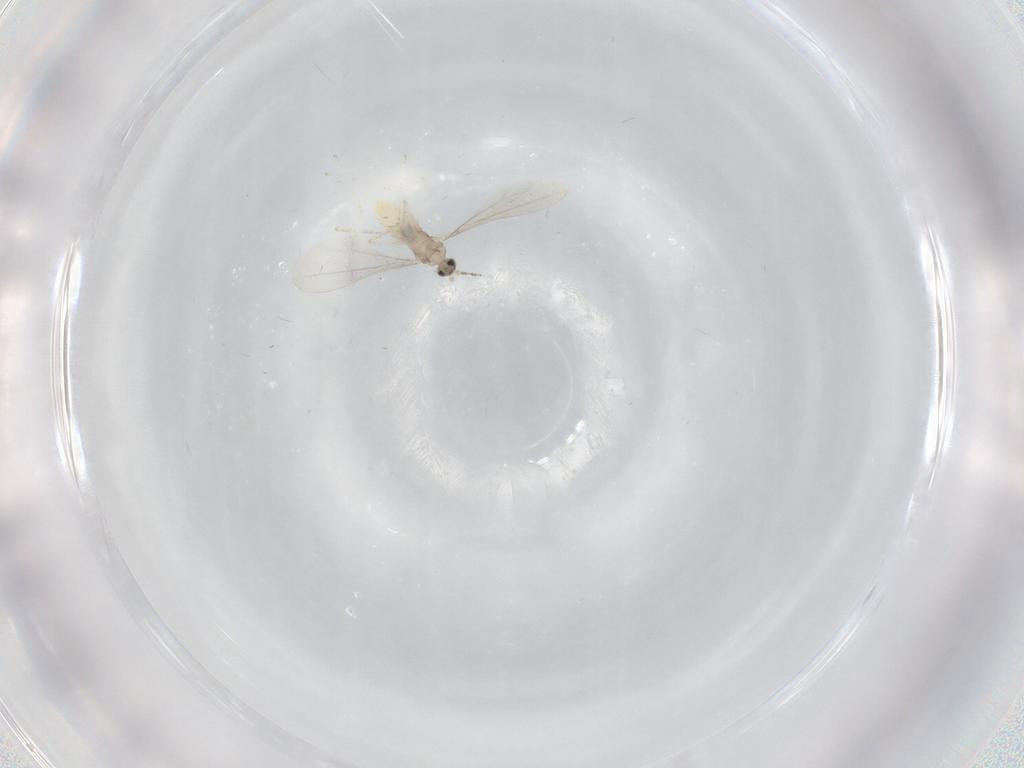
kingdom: Animalia
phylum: Arthropoda
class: Insecta
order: Diptera
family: Cecidomyiidae
